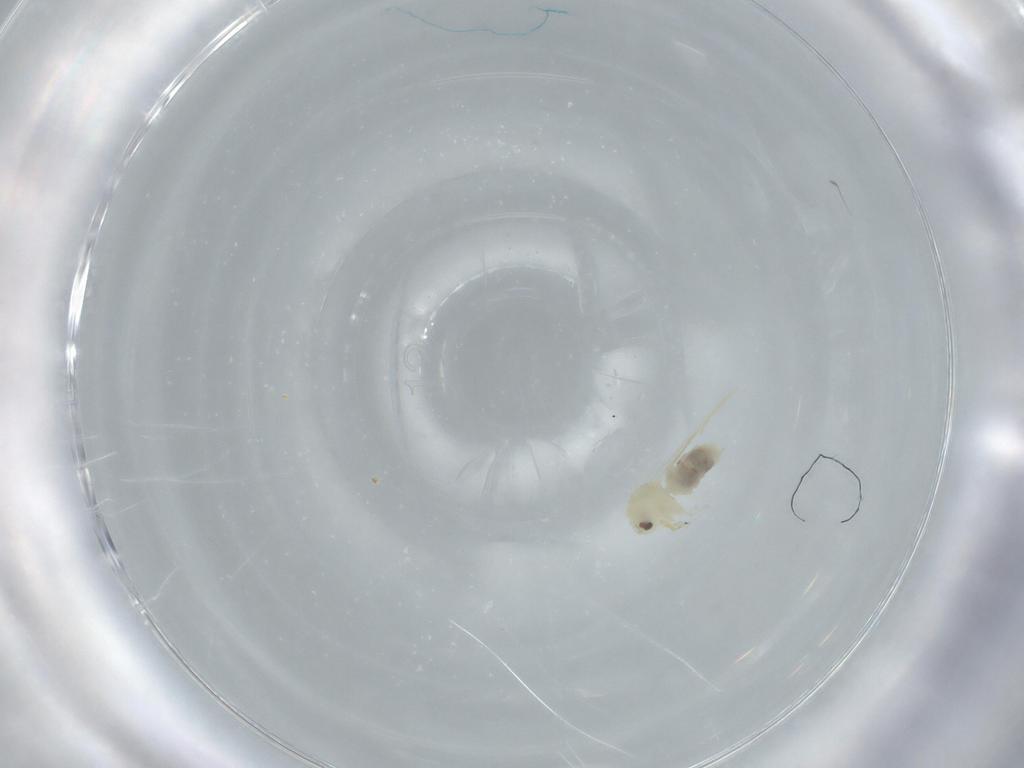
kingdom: Animalia
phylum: Arthropoda
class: Insecta
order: Hemiptera
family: Aleyrodidae
